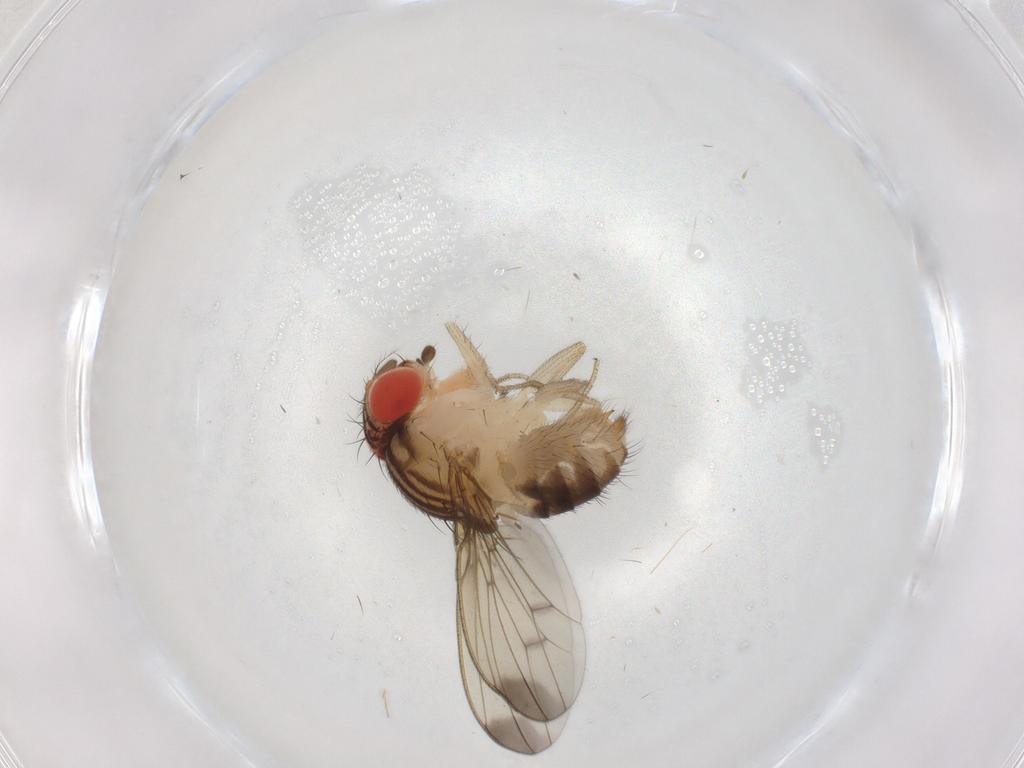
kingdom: Animalia
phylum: Arthropoda
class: Insecta
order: Diptera
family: Drosophilidae
